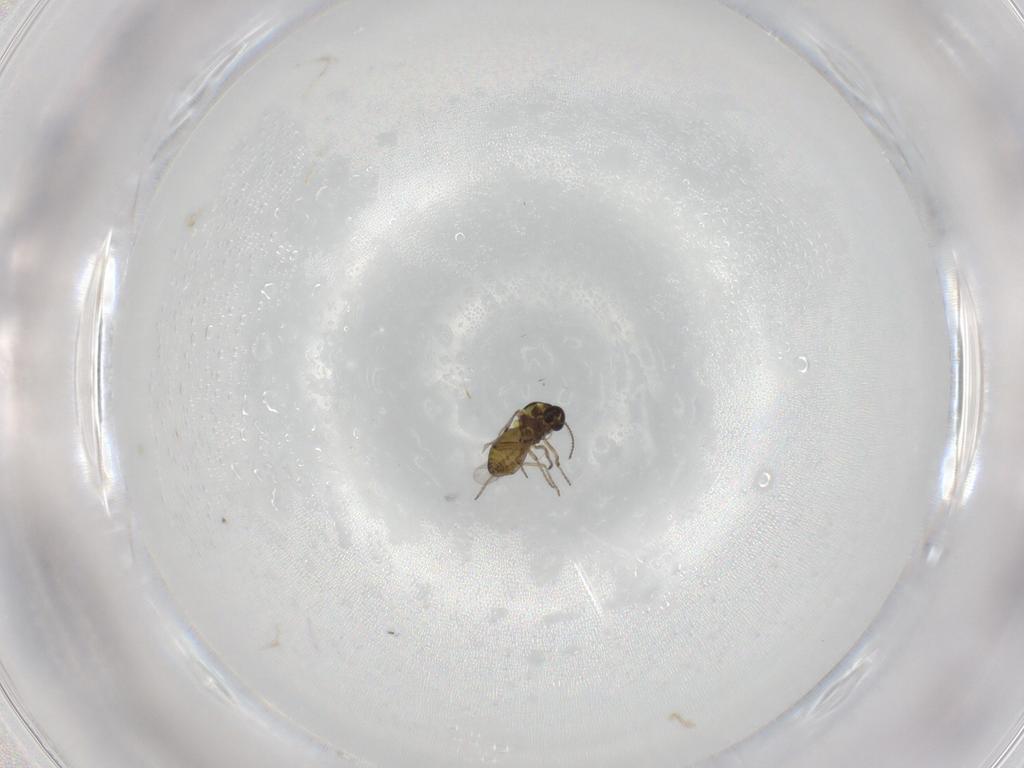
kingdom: Animalia
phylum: Arthropoda
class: Insecta
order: Diptera
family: Ceratopogonidae
